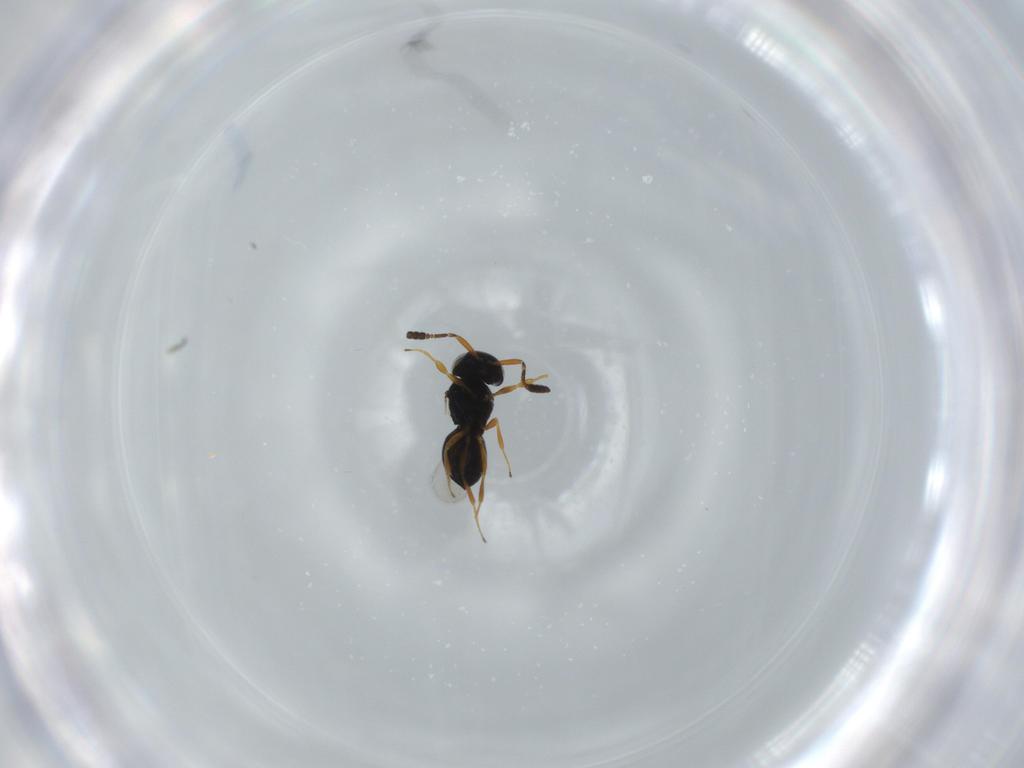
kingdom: Animalia
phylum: Arthropoda
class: Insecta
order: Hymenoptera
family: Scelionidae
